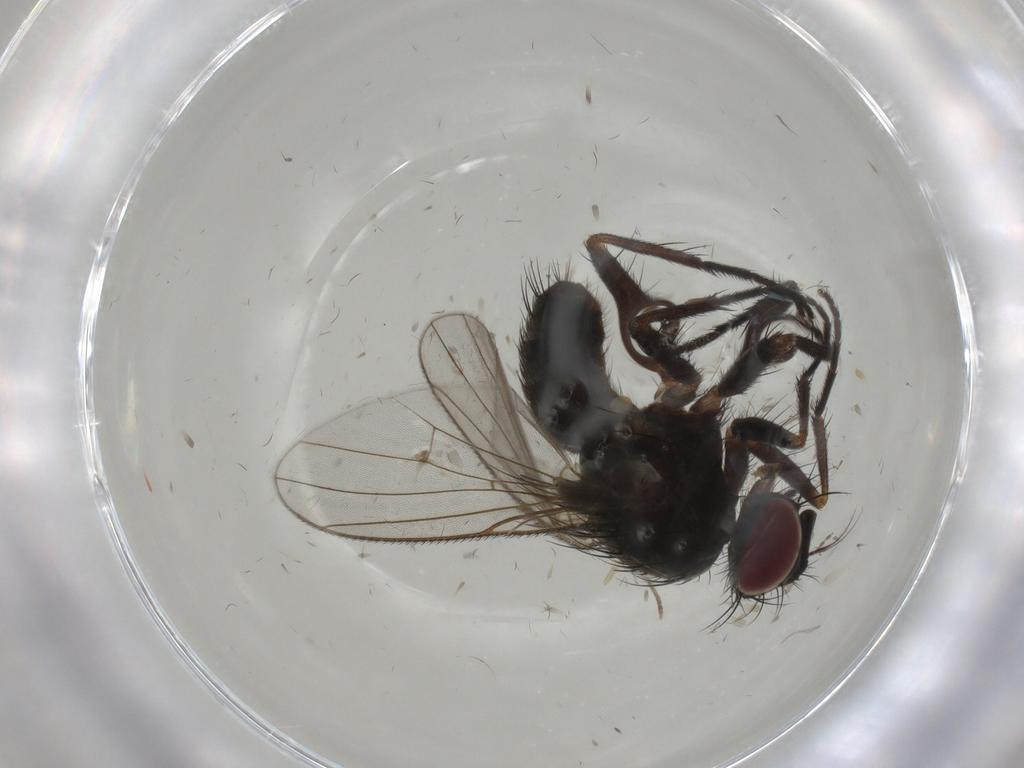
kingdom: Animalia
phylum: Arthropoda
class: Insecta
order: Diptera
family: Muscidae
